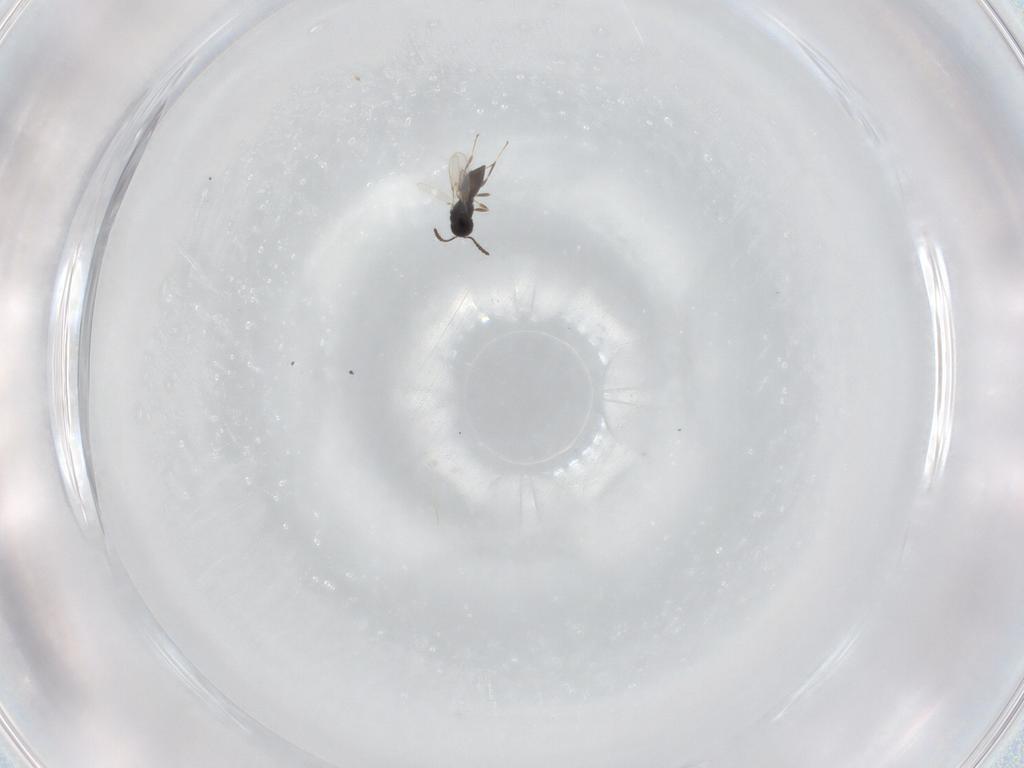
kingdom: Animalia
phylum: Arthropoda
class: Insecta
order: Hymenoptera
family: Scelionidae
